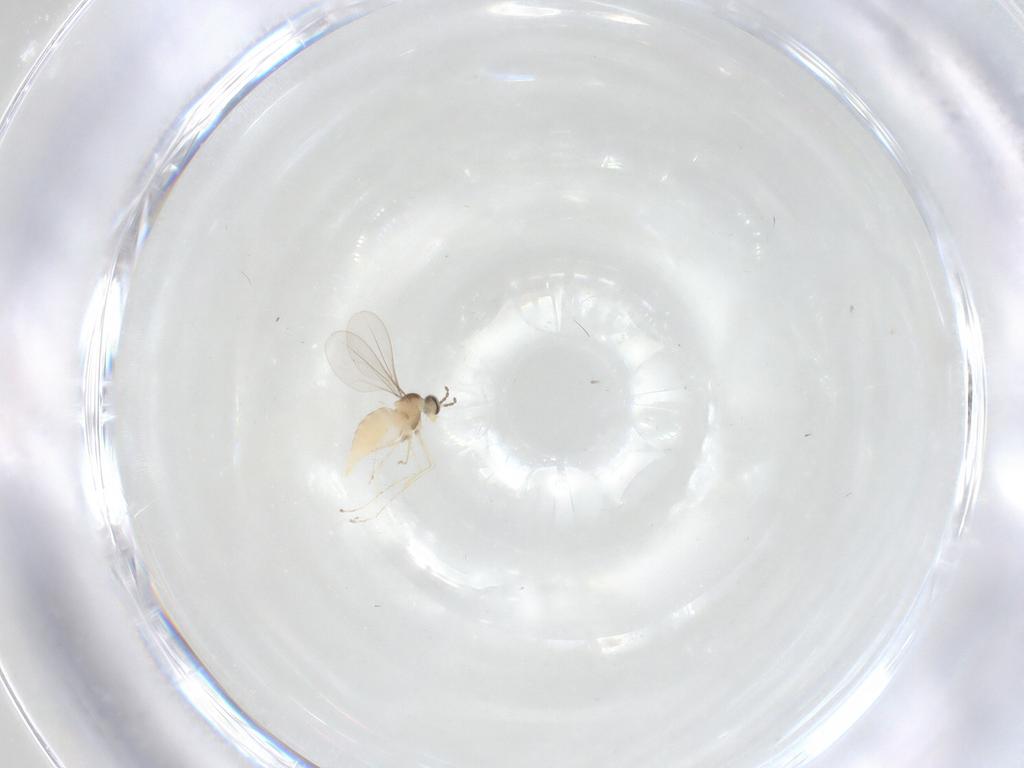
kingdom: Animalia
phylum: Arthropoda
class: Insecta
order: Diptera
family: Cecidomyiidae
